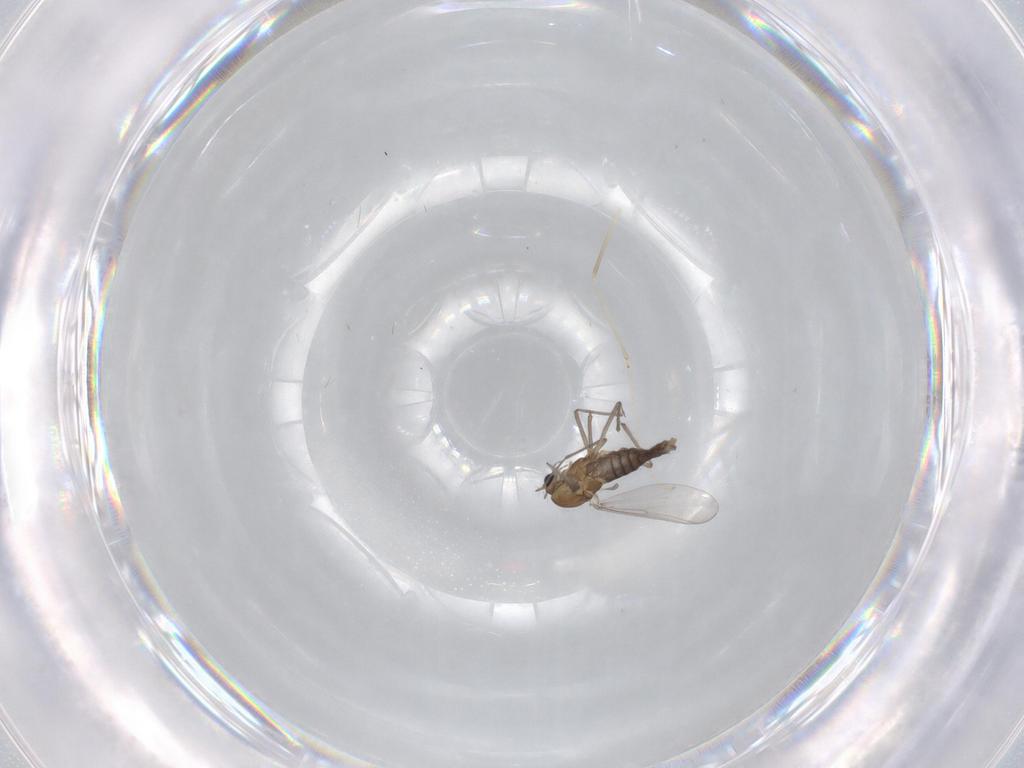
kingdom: Animalia
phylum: Arthropoda
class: Insecta
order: Diptera
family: Chironomidae
